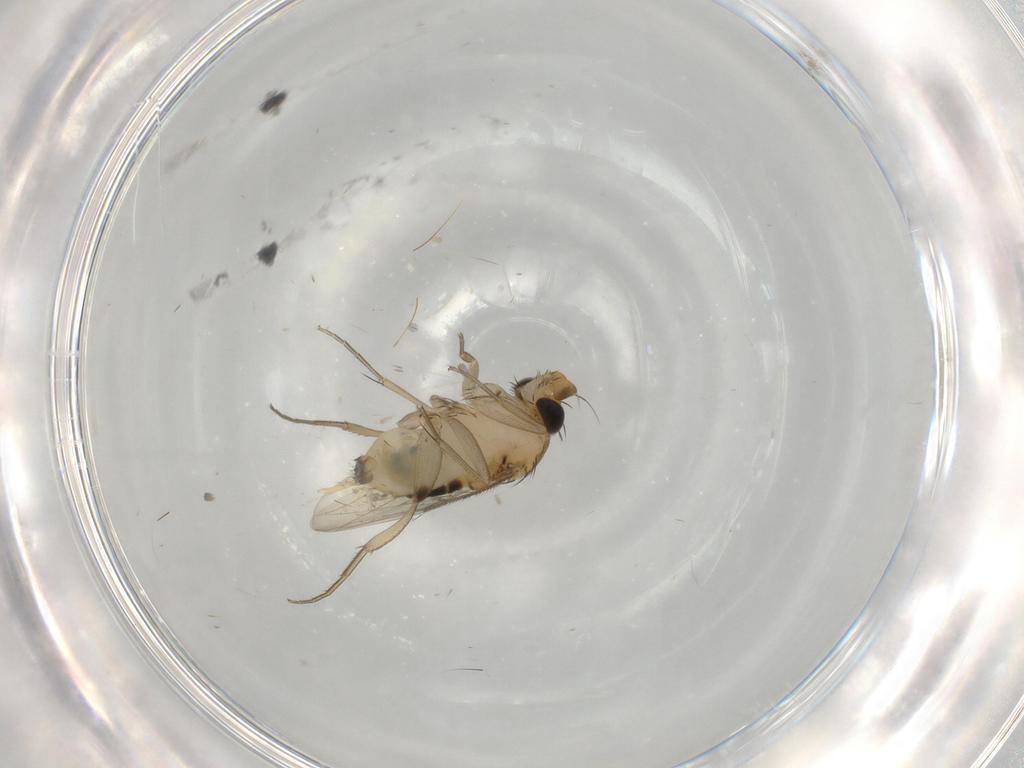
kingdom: Animalia
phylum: Arthropoda
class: Insecta
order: Diptera
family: Phoridae
